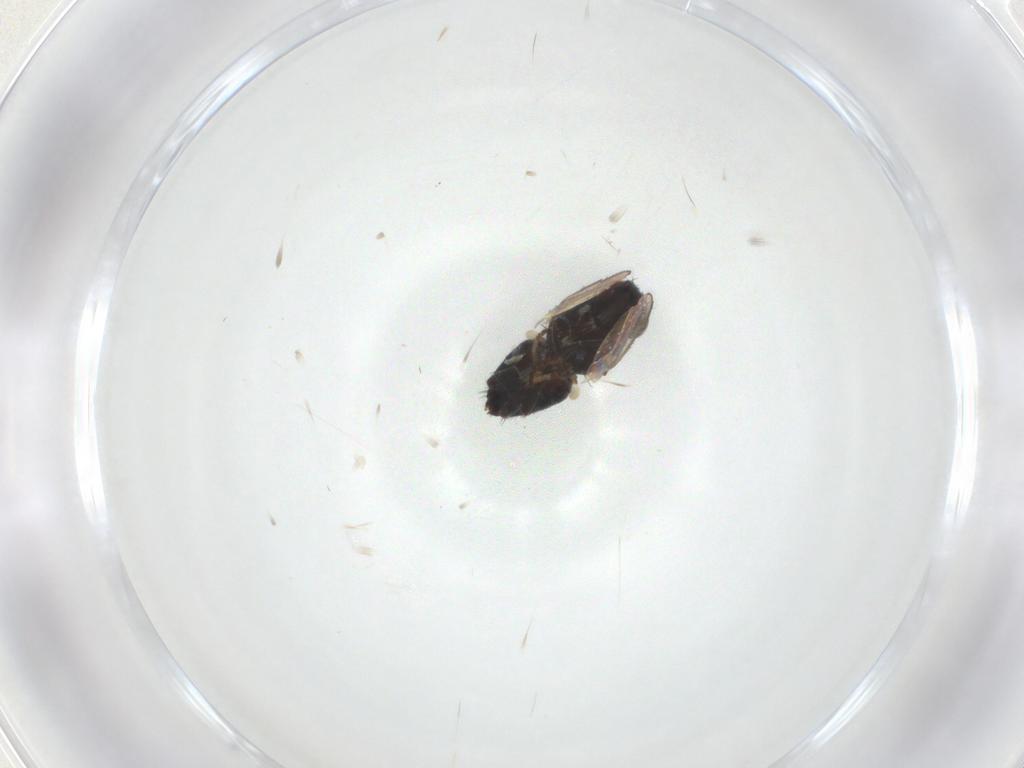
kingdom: Animalia
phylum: Arthropoda
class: Insecta
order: Diptera
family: Milichiidae
